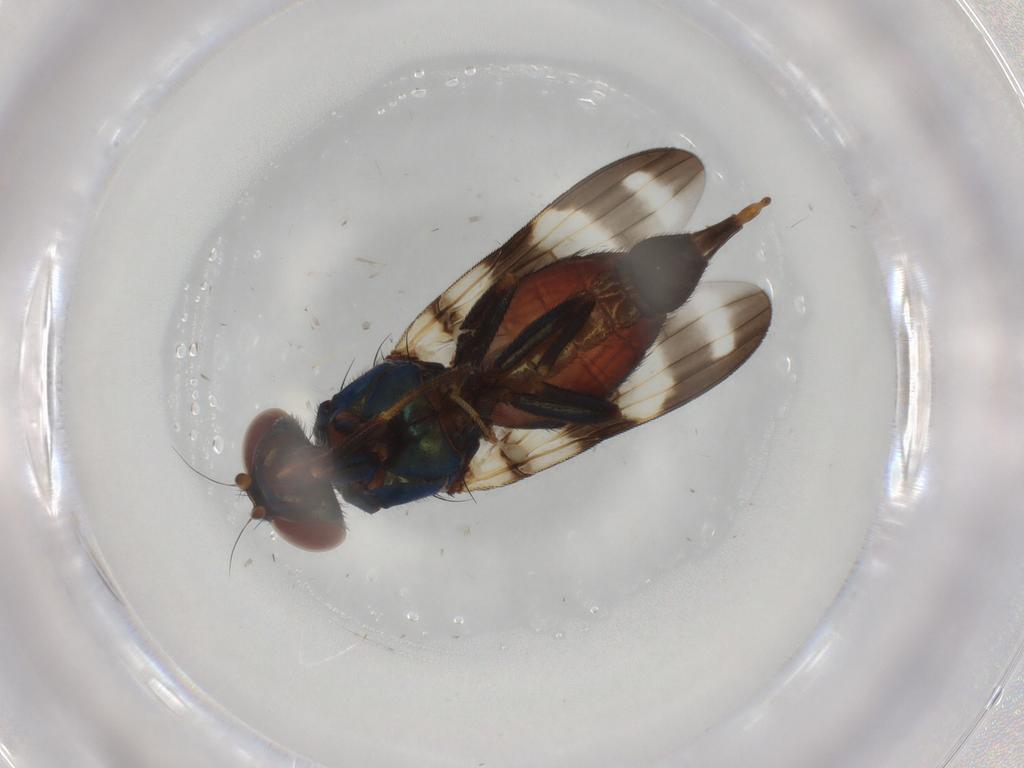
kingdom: Animalia
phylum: Arthropoda
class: Insecta
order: Diptera
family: Ulidiidae
